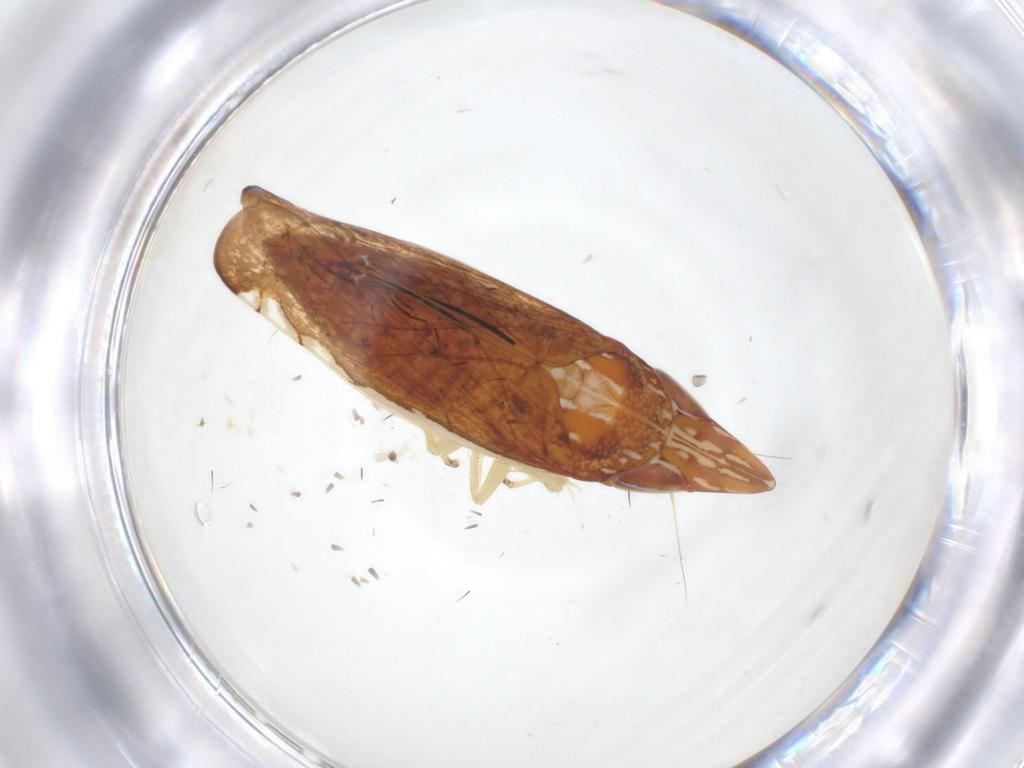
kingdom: Animalia
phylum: Arthropoda
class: Insecta
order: Hemiptera
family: Cicadellidae
